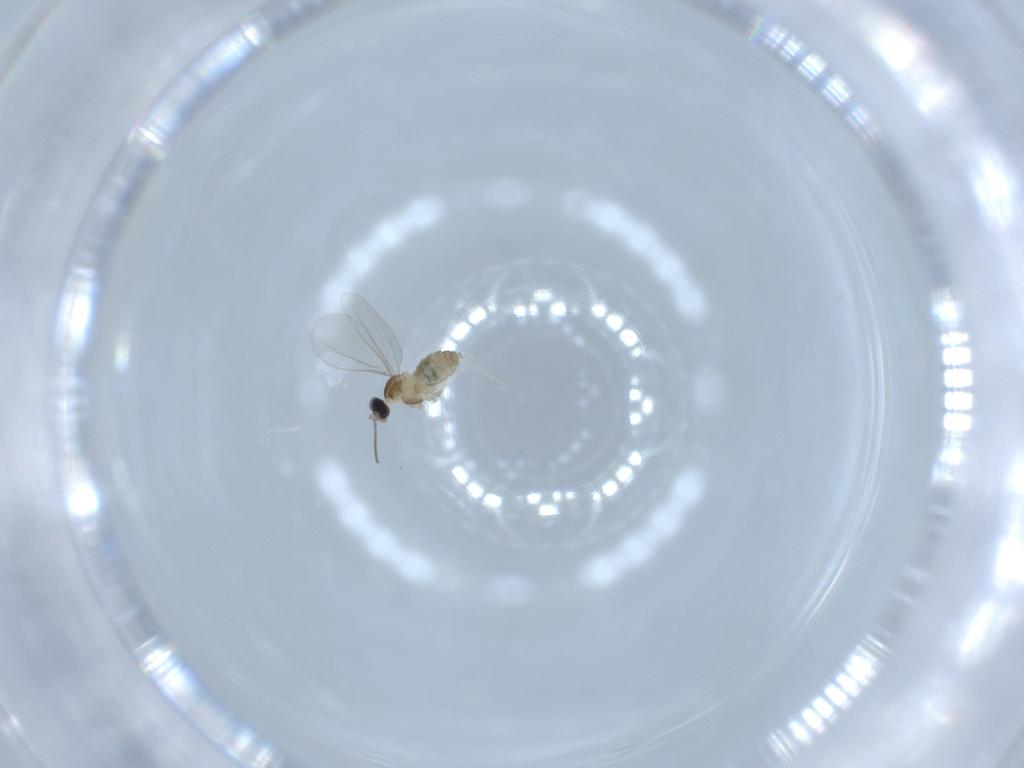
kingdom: Animalia
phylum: Arthropoda
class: Insecta
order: Diptera
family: Cecidomyiidae
